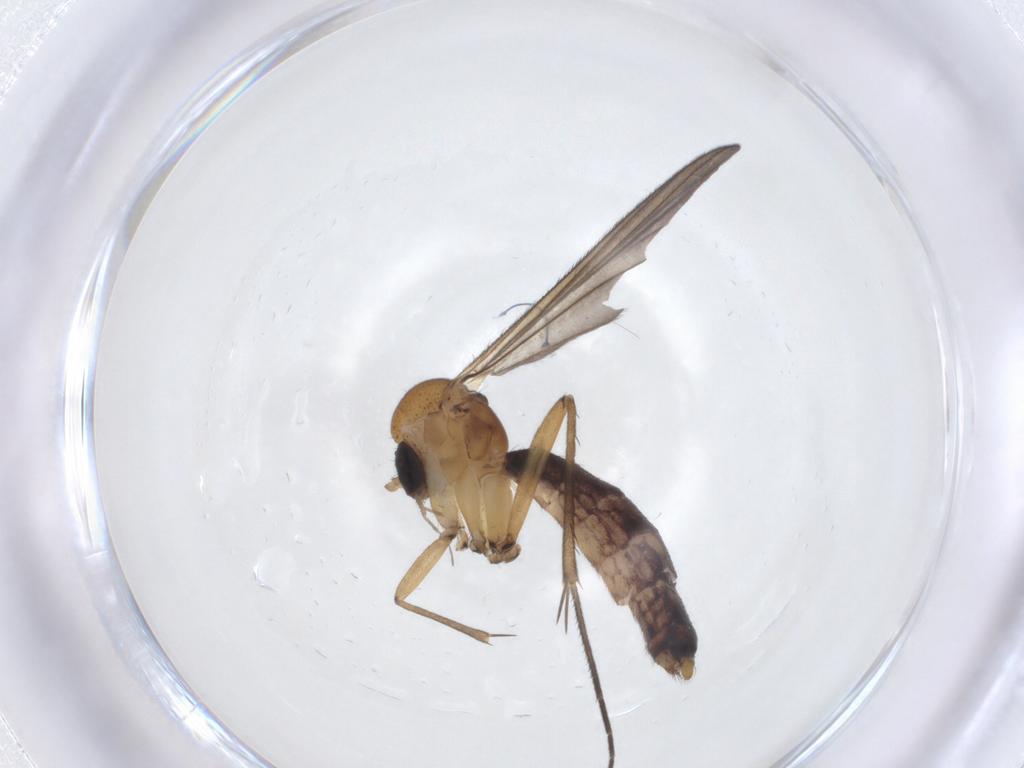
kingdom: Animalia
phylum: Arthropoda
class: Insecta
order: Diptera
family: Mycetophilidae
